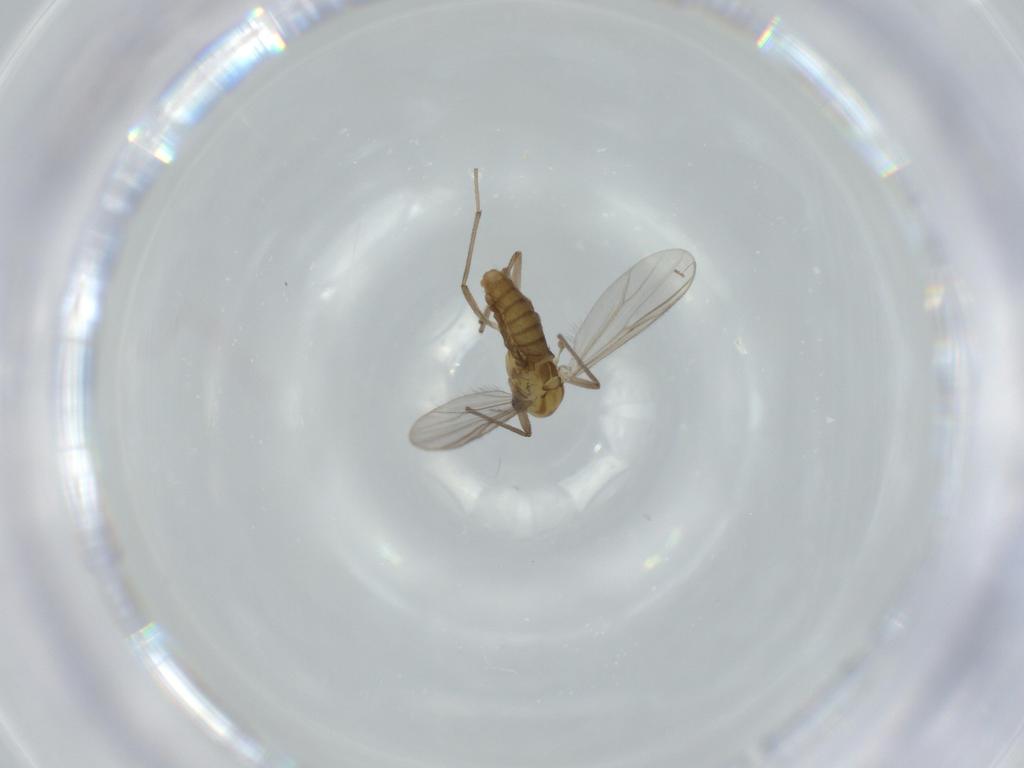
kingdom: Animalia
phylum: Arthropoda
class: Insecta
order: Diptera
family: Chironomidae
